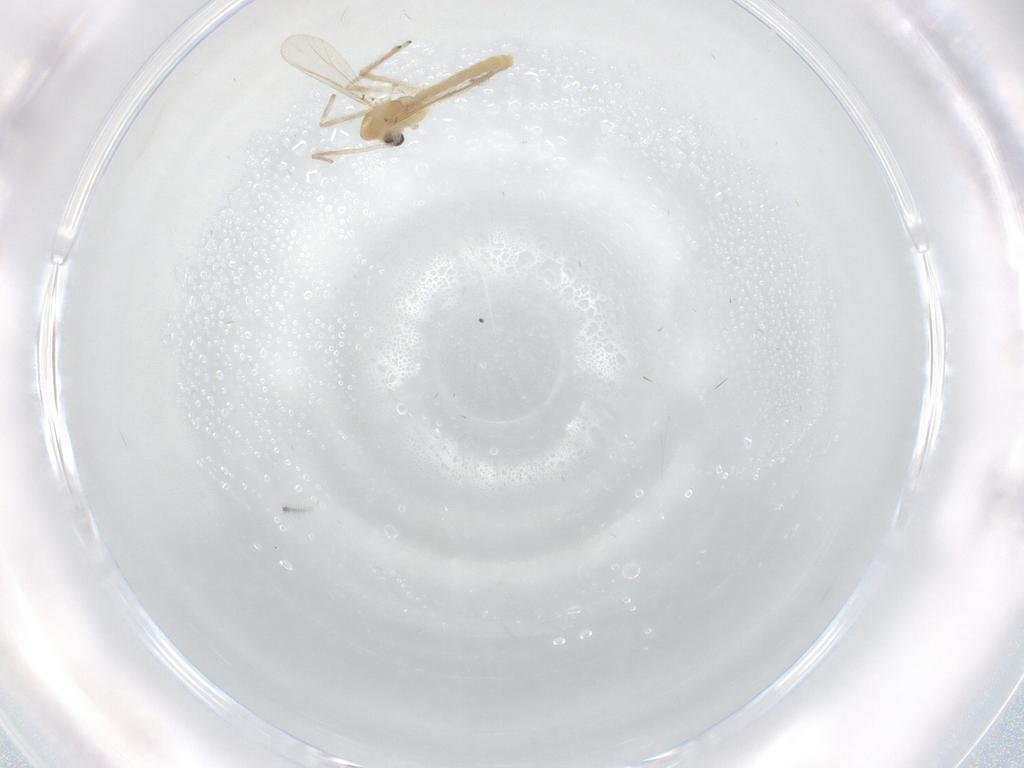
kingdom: Animalia
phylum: Arthropoda
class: Insecta
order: Diptera
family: Chironomidae
